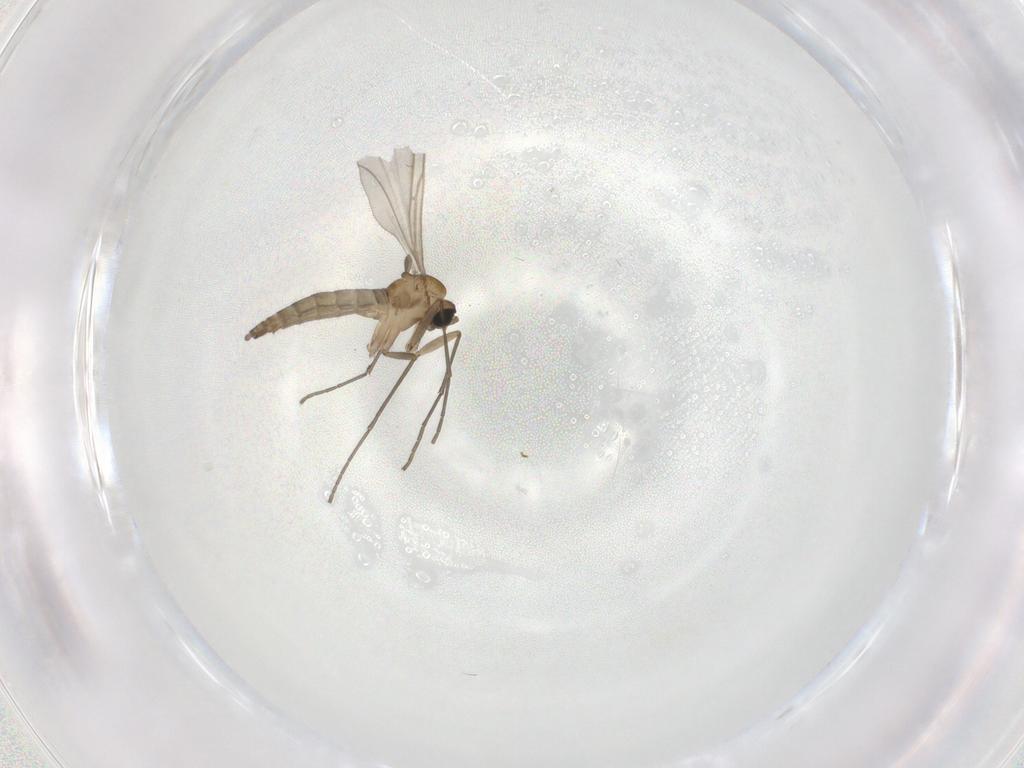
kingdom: Animalia
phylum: Arthropoda
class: Insecta
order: Diptera
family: Sciaridae
